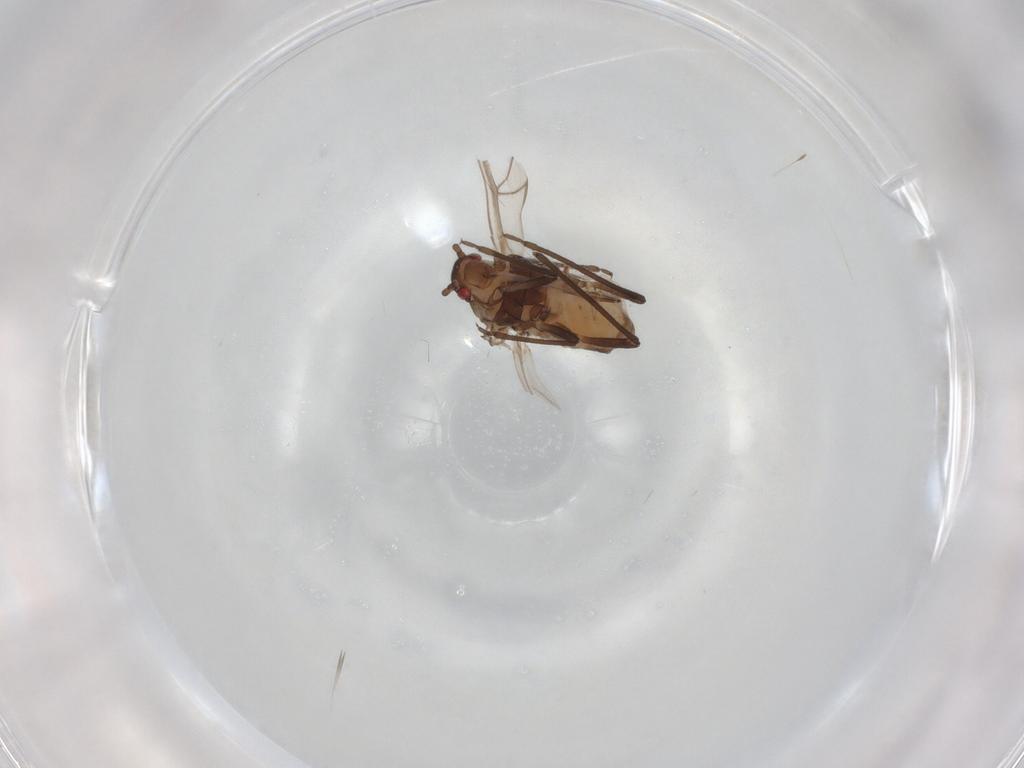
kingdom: Animalia
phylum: Arthropoda
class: Insecta
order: Hemiptera
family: Aphididae
